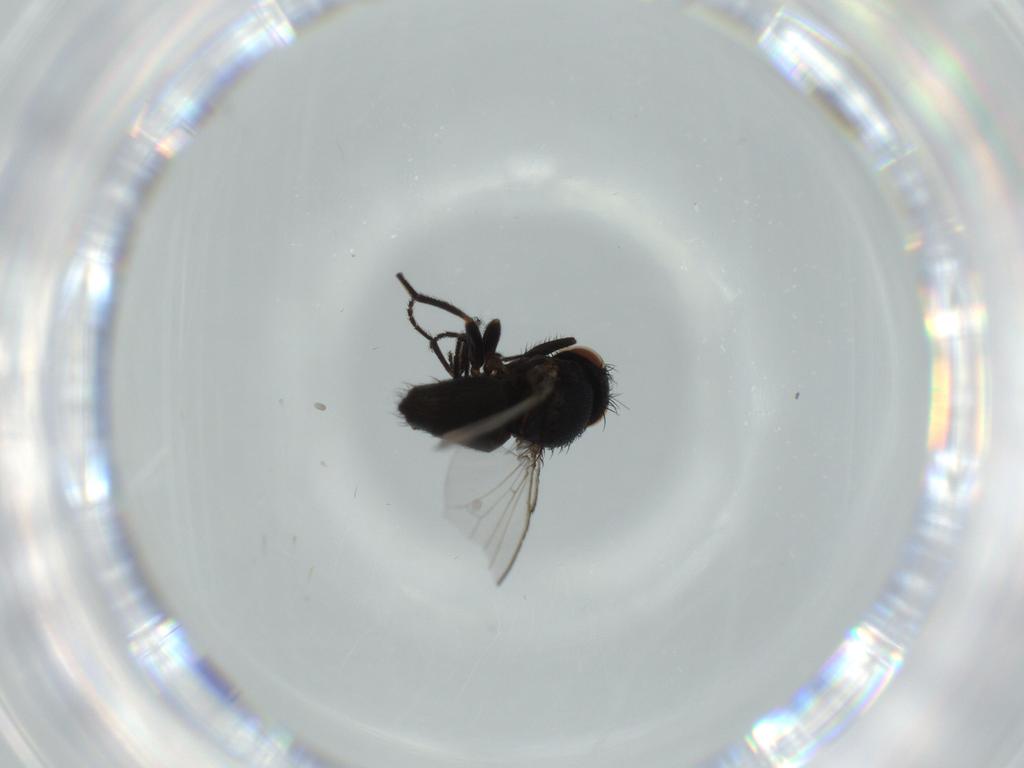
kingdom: Animalia
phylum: Arthropoda
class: Insecta
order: Diptera
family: Milichiidae
